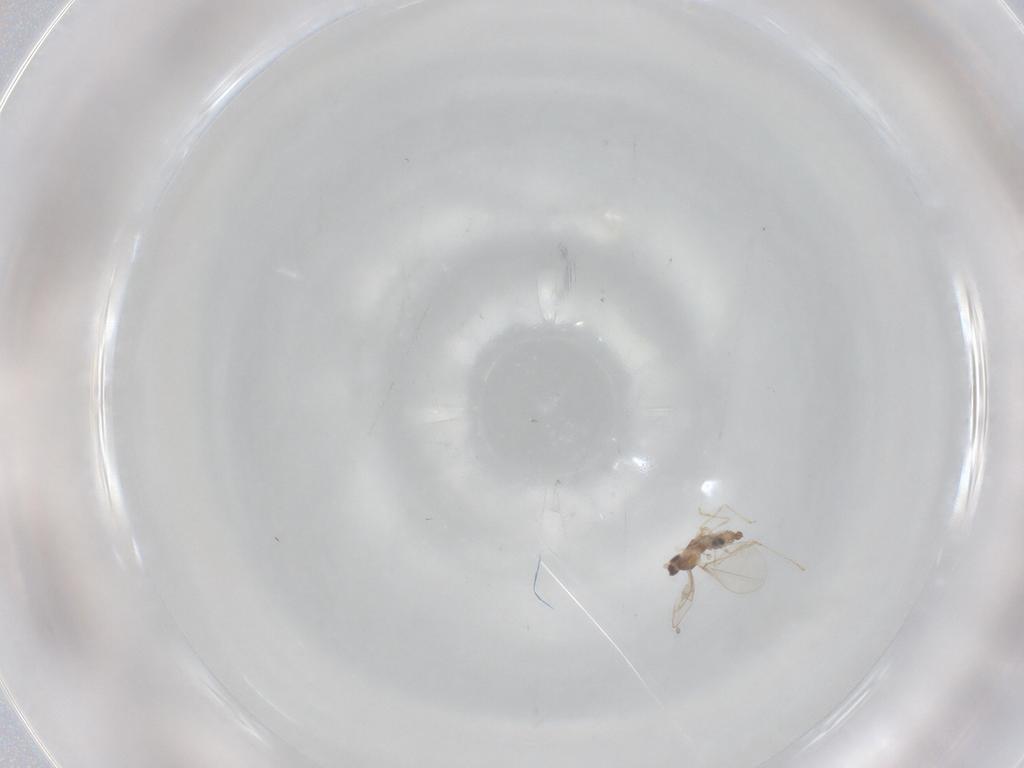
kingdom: Animalia
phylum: Arthropoda
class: Insecta
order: Diptera
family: Cecidomyiidae
